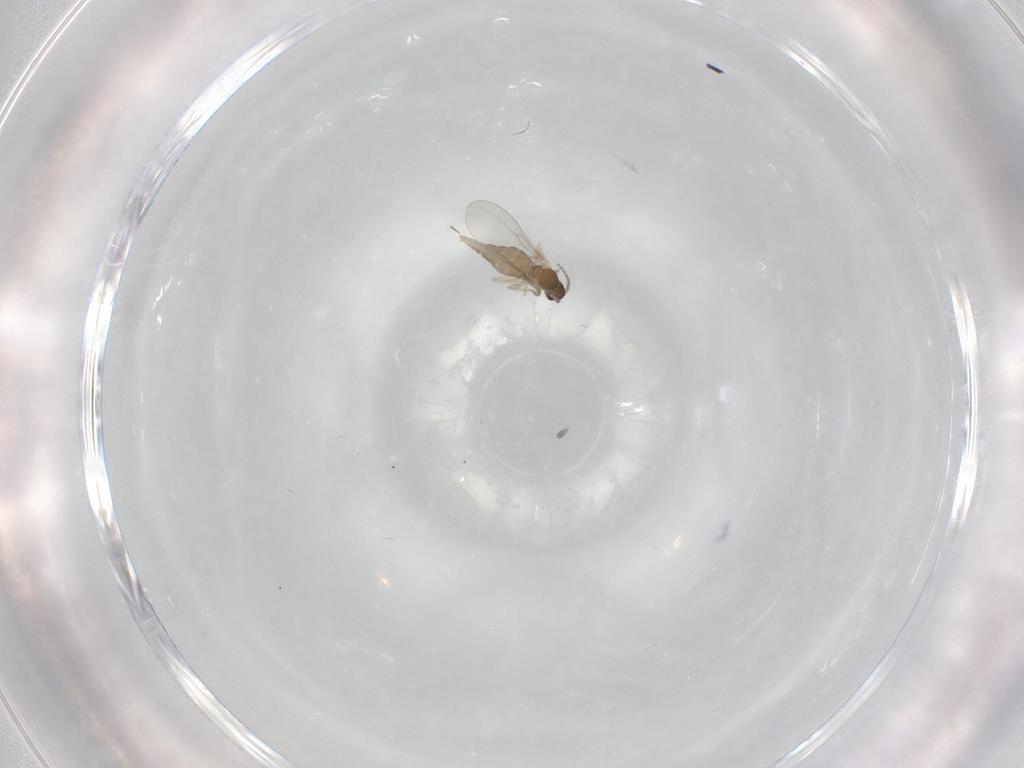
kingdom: Animalia
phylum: Arthropoda
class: Insecta
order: Diptera
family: Cecidomyiidae
